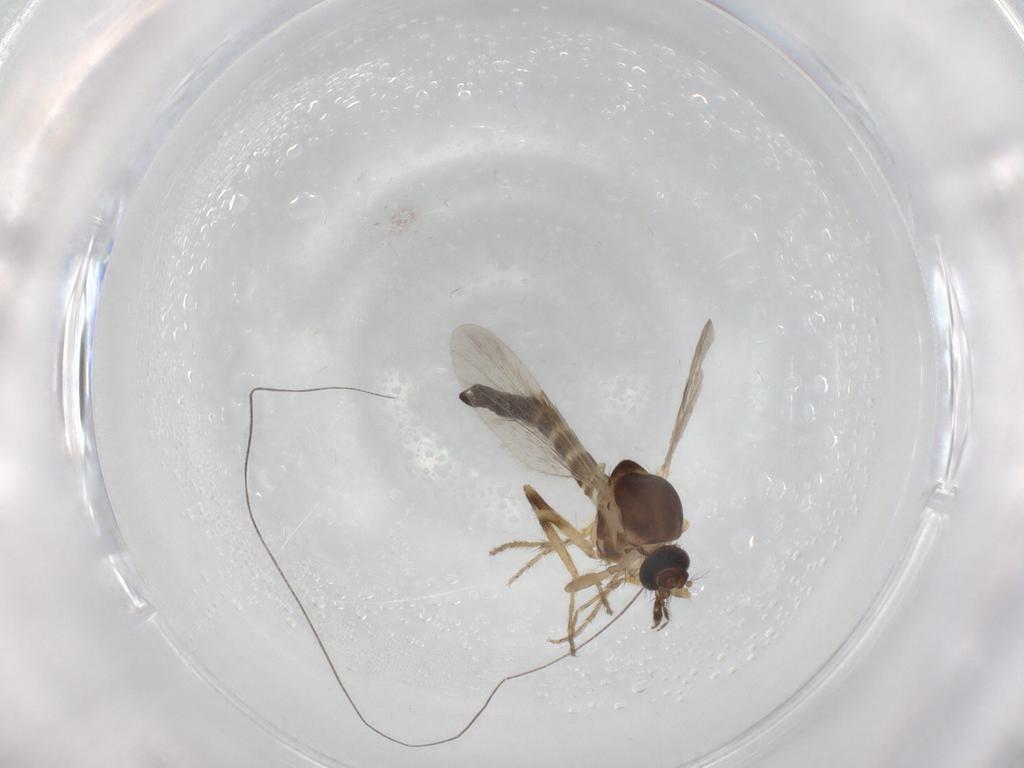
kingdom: Animalia
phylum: Arthropoda
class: Insecta
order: Diptera
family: Ceratopogonidae
